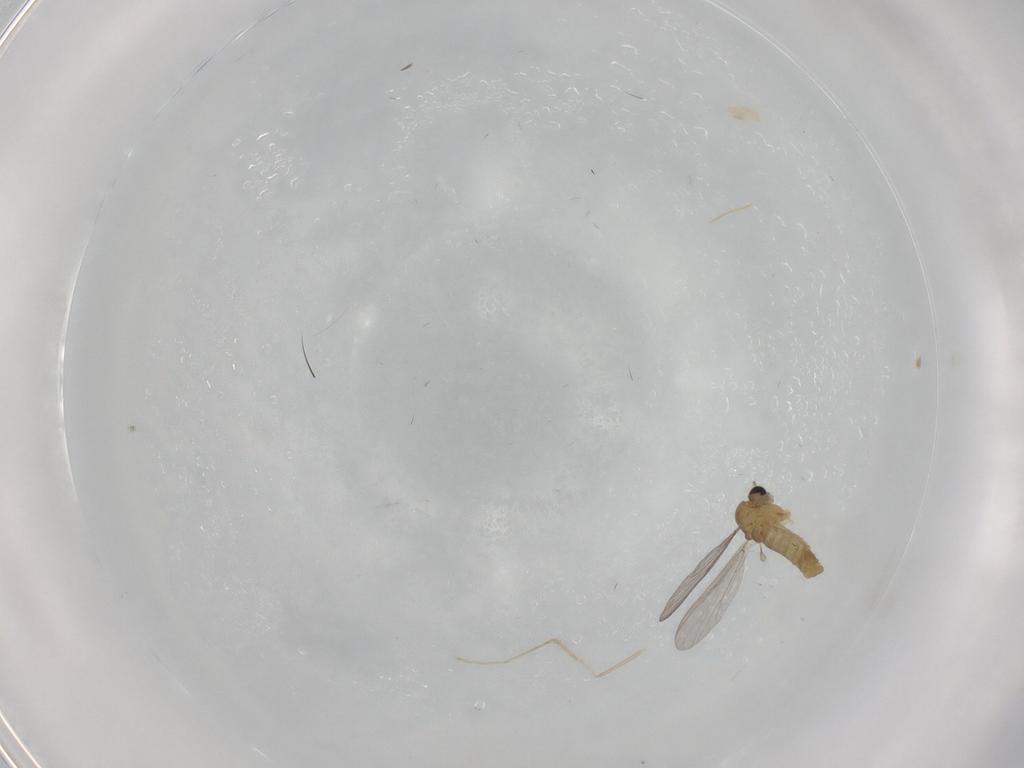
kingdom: Animalia
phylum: Arthropoda
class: Insecta
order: Diptera
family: Chironomidae
